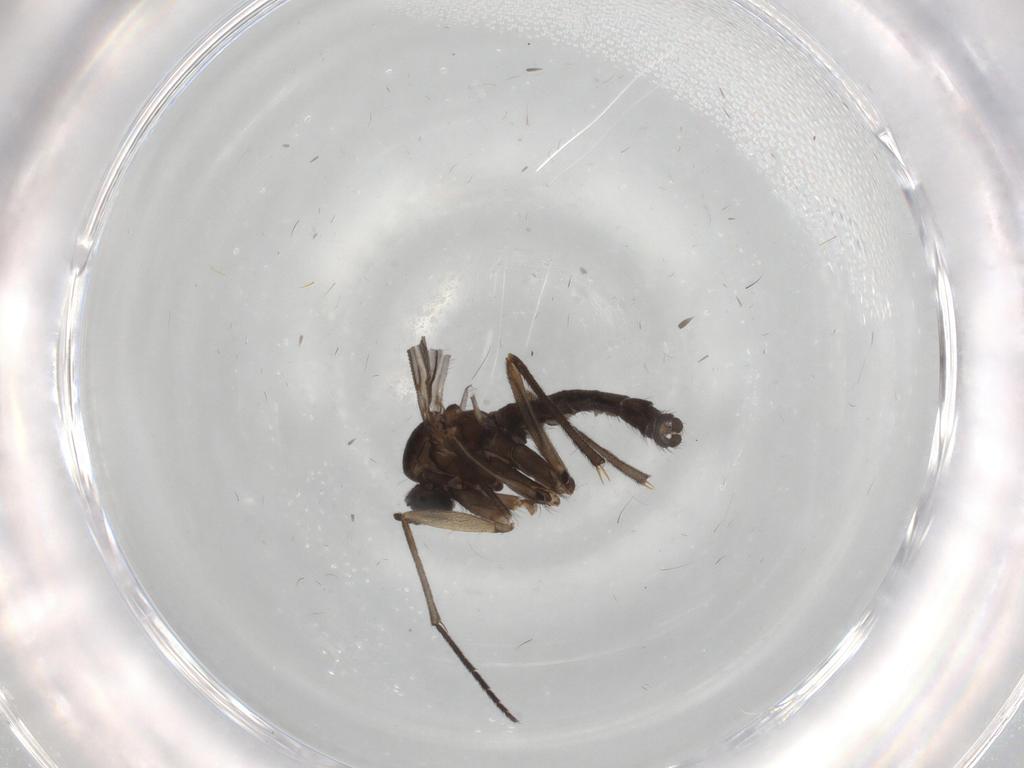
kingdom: Animalia
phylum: Arthropoda
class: Insecta
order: Diptera
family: Sciaridae
